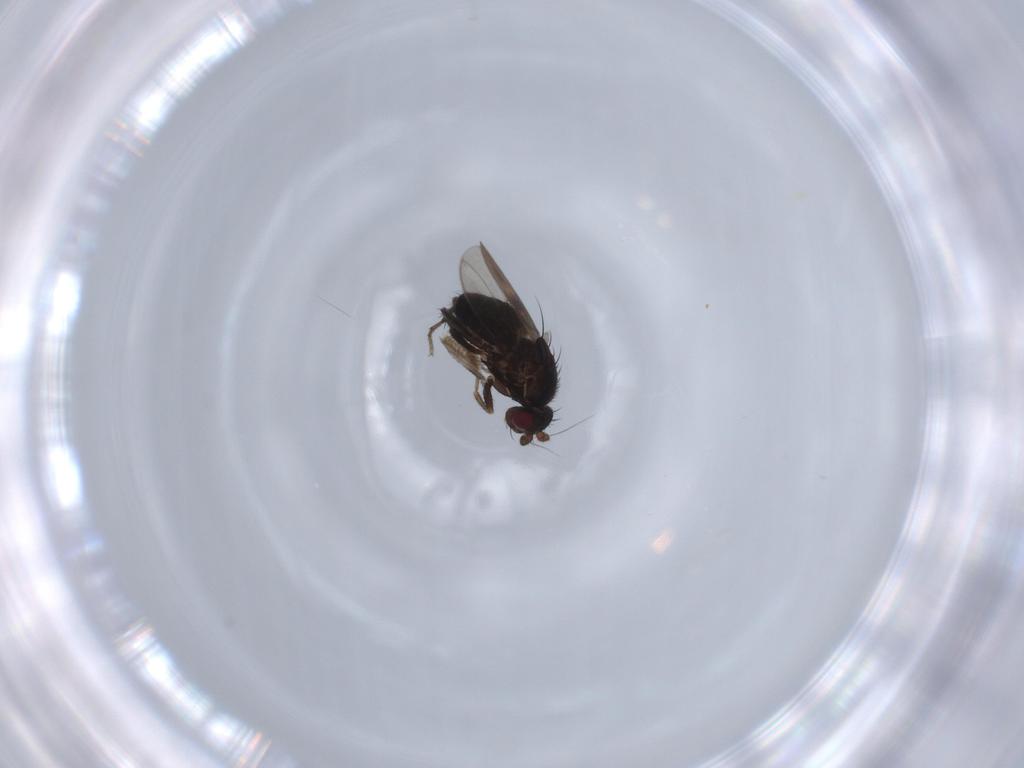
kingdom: Animalia
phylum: Arthropoda
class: Insecta
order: Diptera
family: Sphaeroceridae
